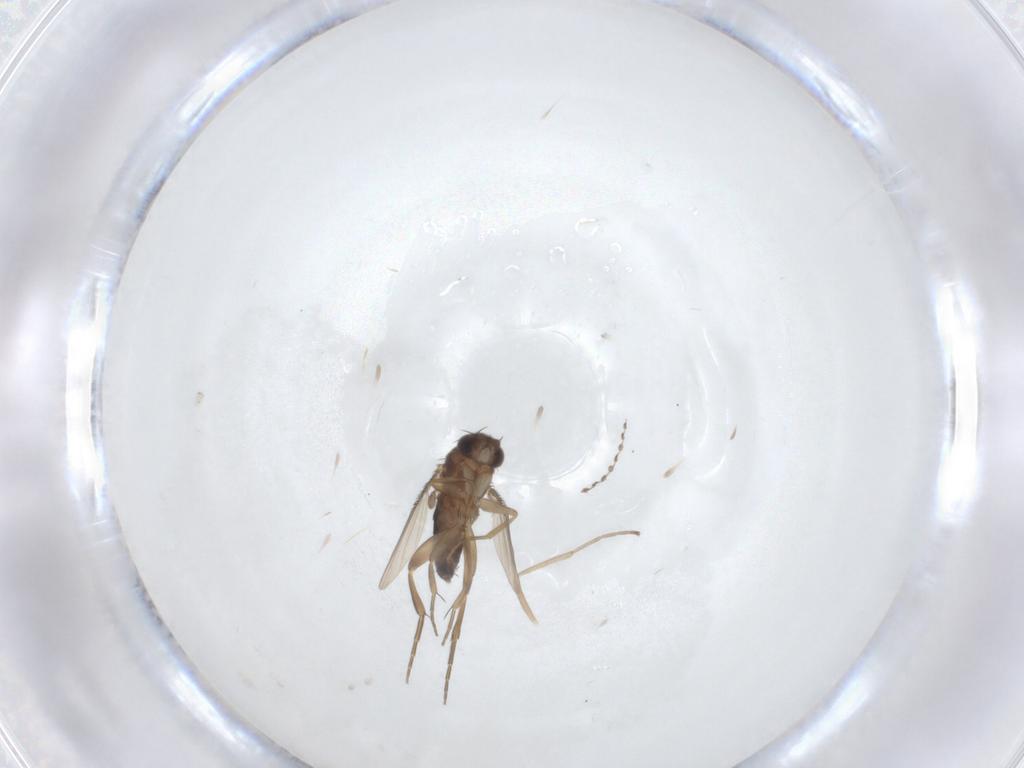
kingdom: Animalia
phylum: Arthropoda
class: Insecta
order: Diptera
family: Phoridae
